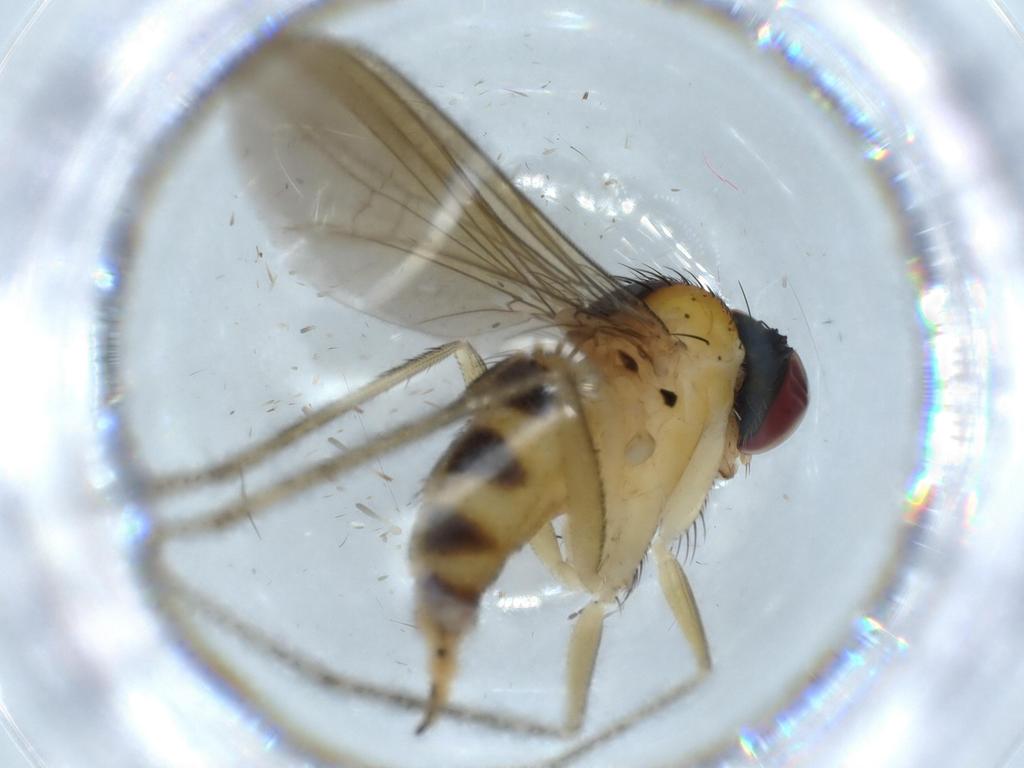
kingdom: Animalia
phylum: Arthropoda
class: Insecta
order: Diptera
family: Dolichopodidae
